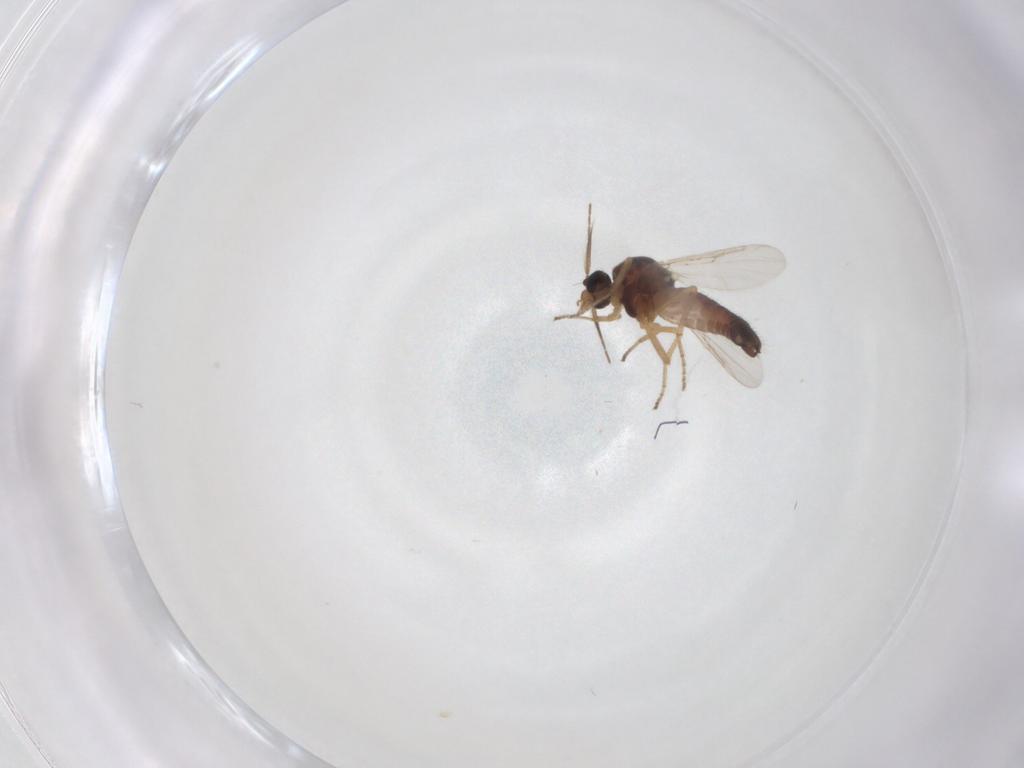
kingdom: Animalia
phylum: Arthropoda
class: Insecta
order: Diptera
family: Ceratopogonidae
